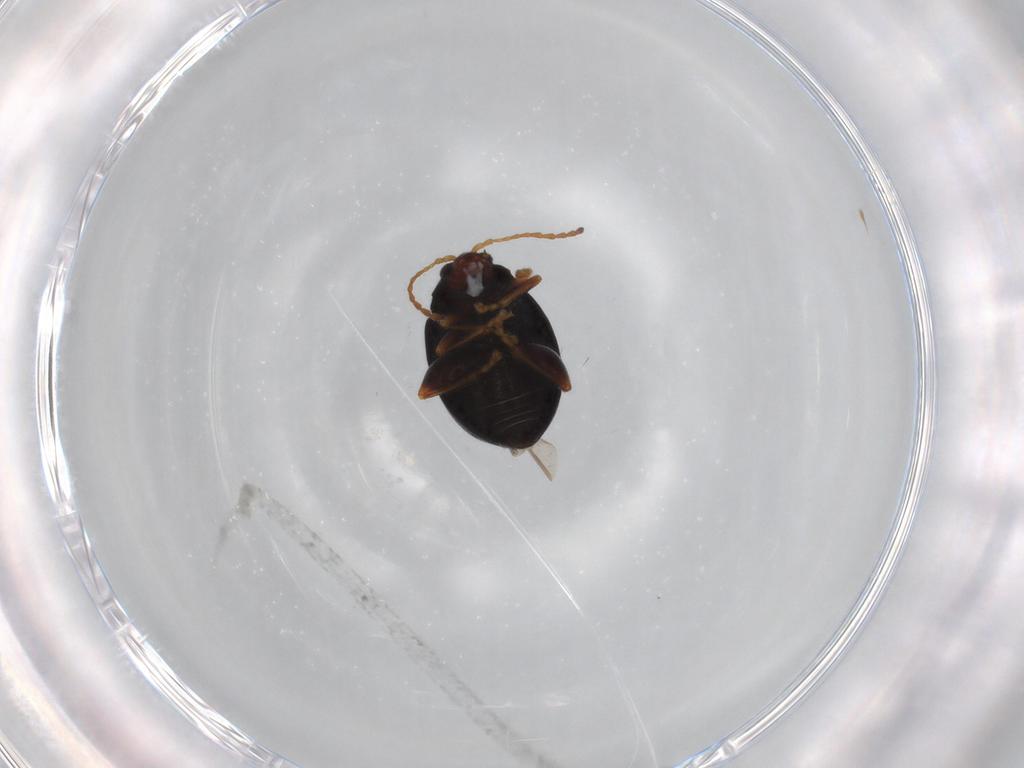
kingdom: Animalia
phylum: Arthropoda
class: Insecta
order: Coleoptera
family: Chrysomelidae
